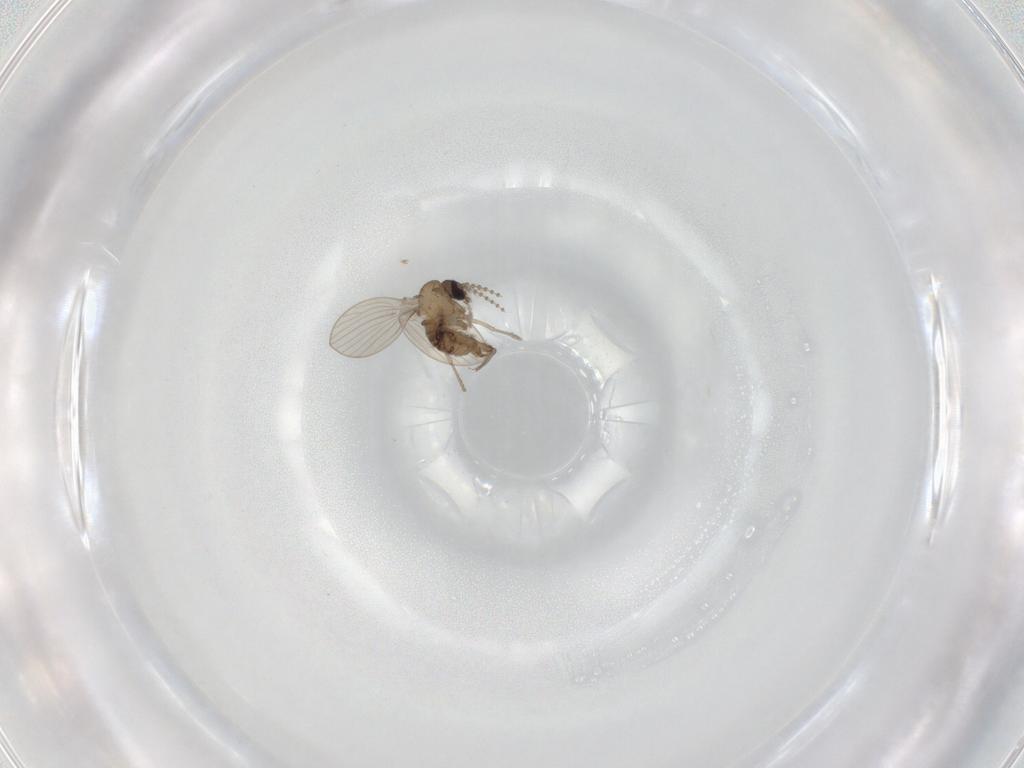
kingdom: Animalia
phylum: Arthropoda
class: Insecta
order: Diptera
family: Psychodidae
